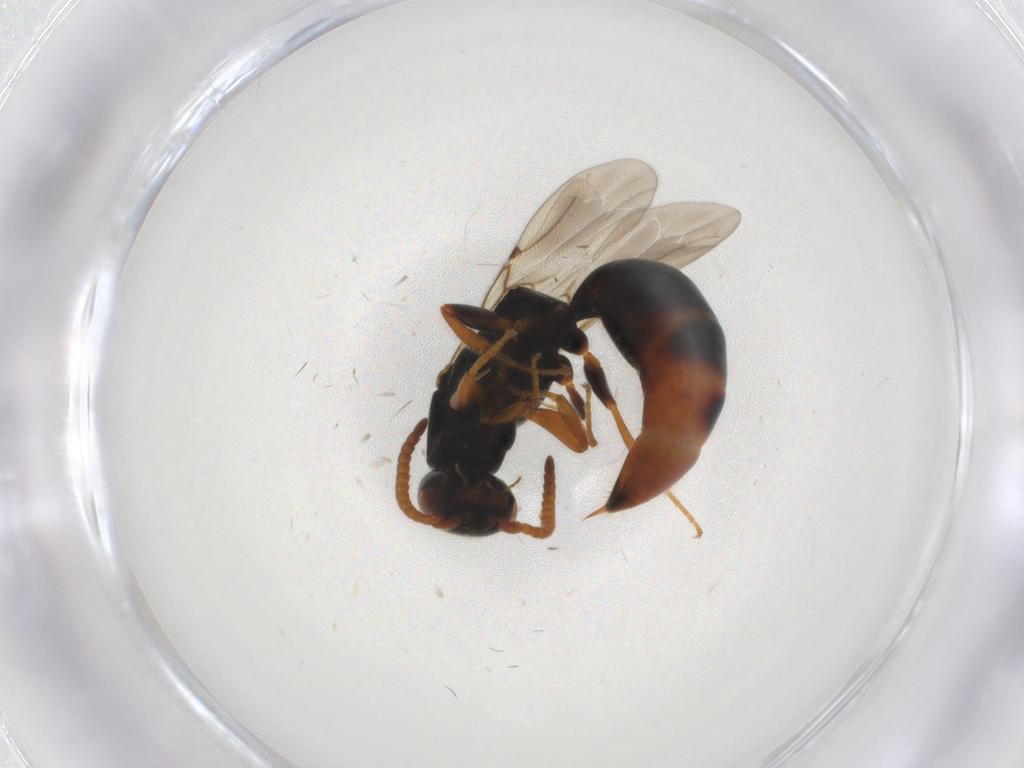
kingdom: Animalia
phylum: Arthropoda
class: Insecta
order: Hymenoptera
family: Bethylidae
